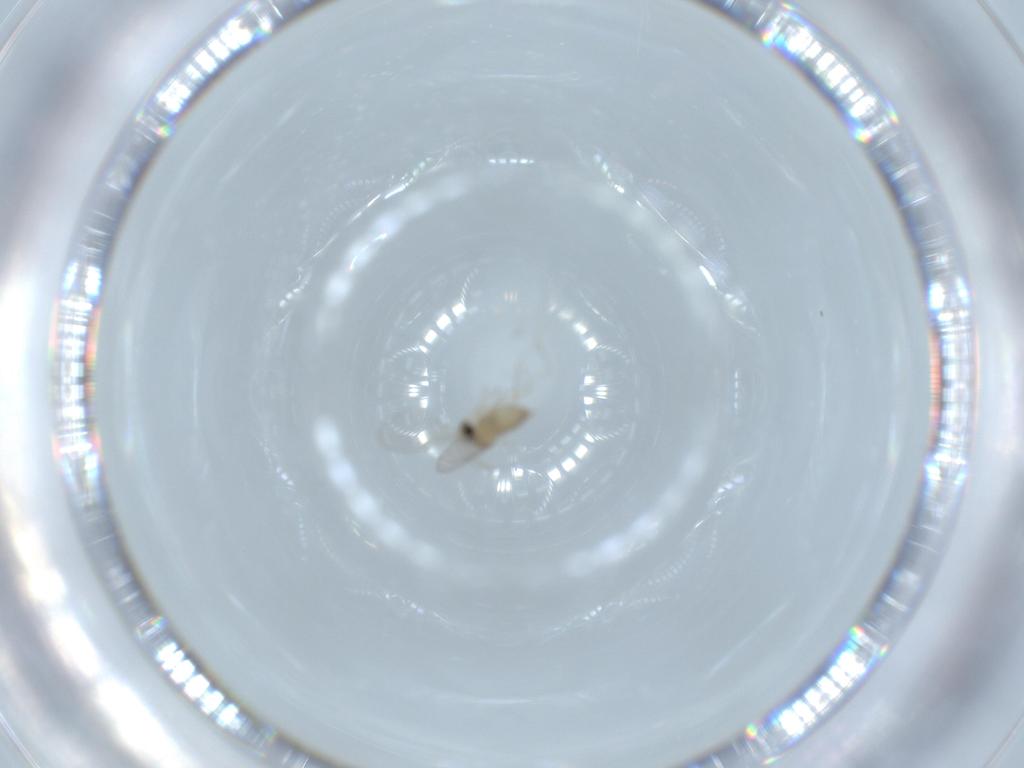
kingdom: Animalia
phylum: Arthropoda
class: Insecta
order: Diptera
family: Cecidomyiidae
